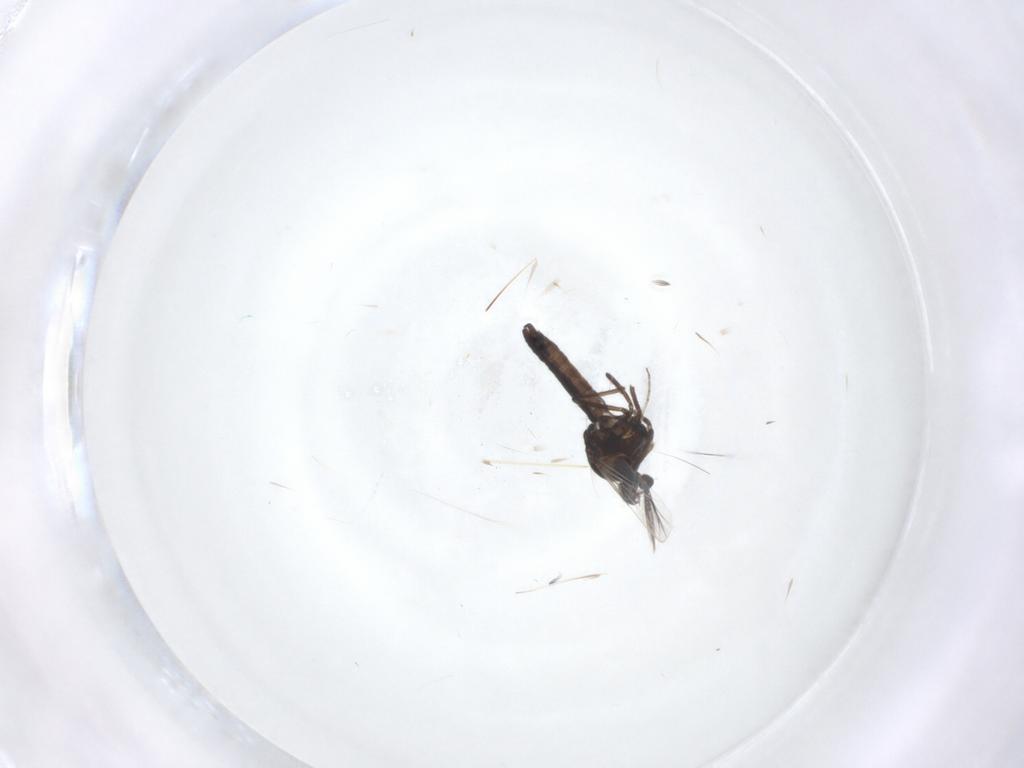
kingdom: Animalia
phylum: Arthropoda
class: Insecta
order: Diptera
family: Ceratopogonidae
